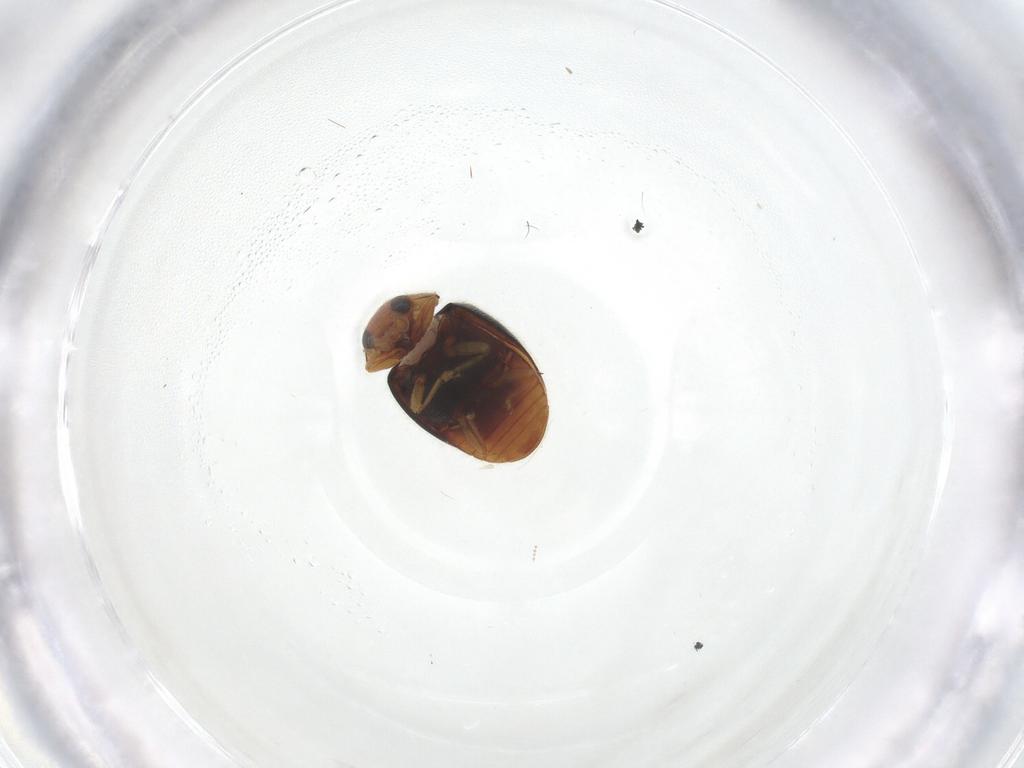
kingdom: Animalia
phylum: Arthropoda
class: Insecta
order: Coleoptera
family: Coccinellidae
